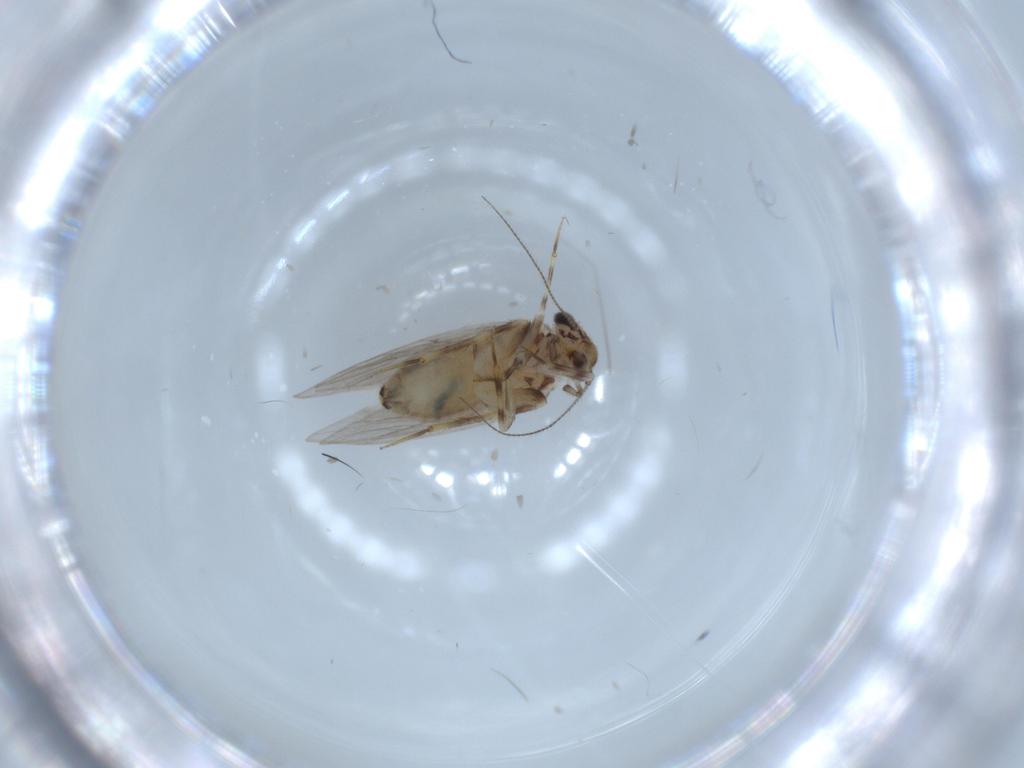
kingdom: Animalia
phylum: Arthropoda
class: Insecta
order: Psocodea
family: Lepidopsocidae
